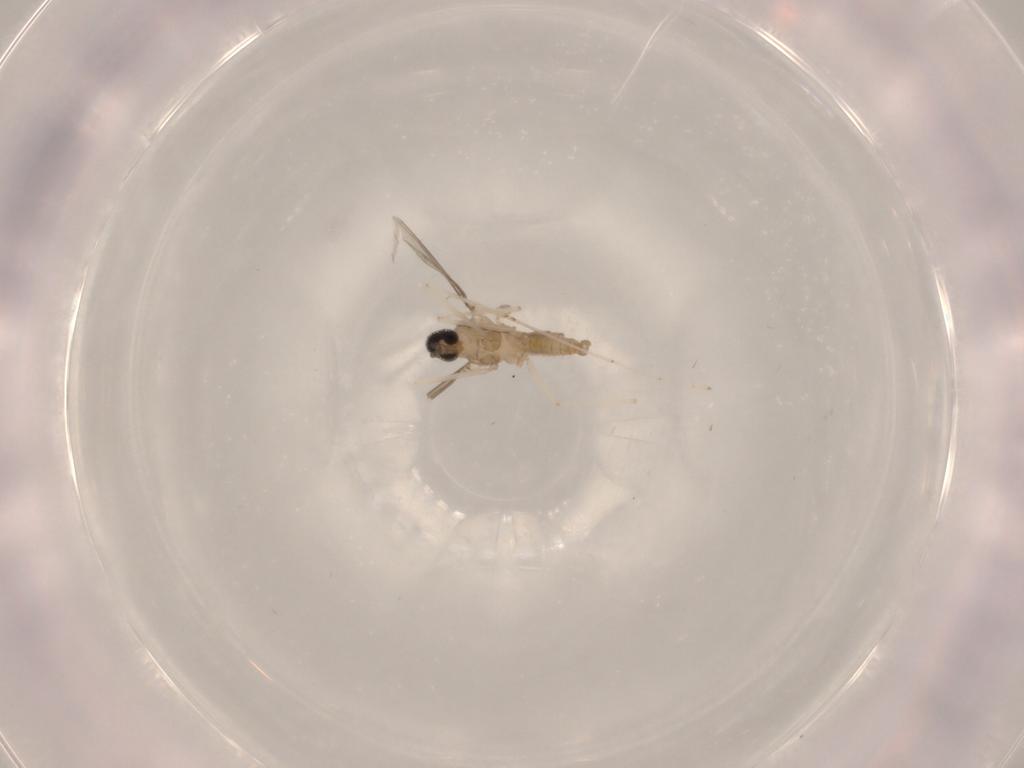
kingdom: Animalia
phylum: Arthropoda
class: Insecta
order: Diptera
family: Cecidomyiidae
